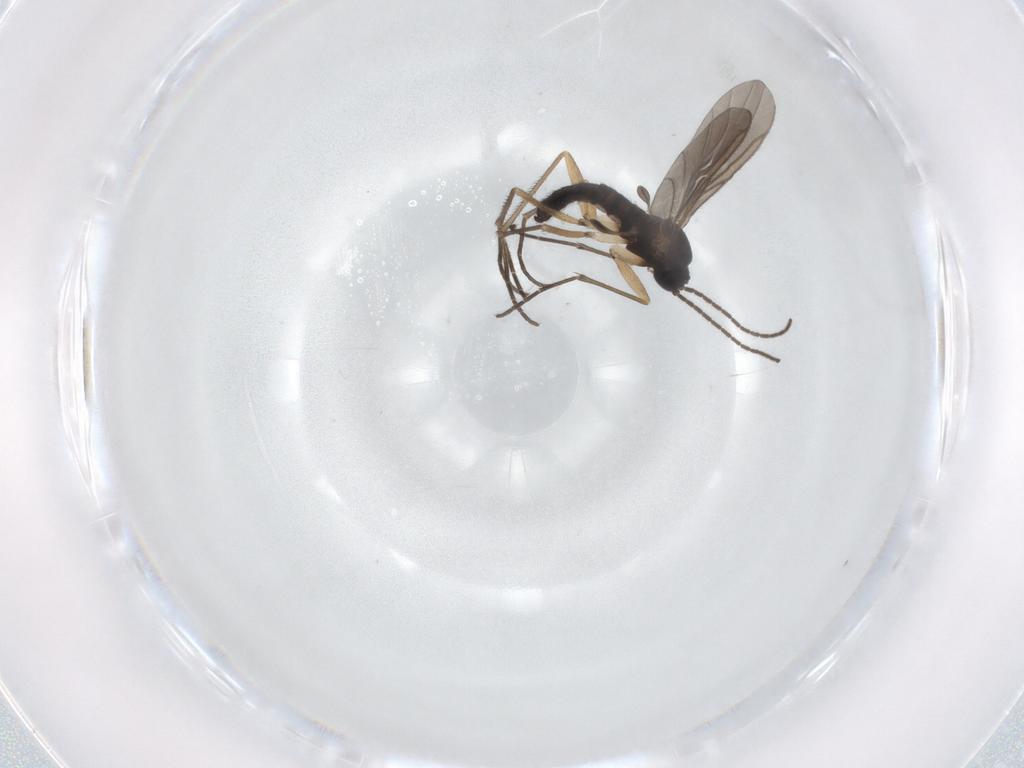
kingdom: Animalia
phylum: Arthropoda
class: Insecta
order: Diptera
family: Sciaridae
